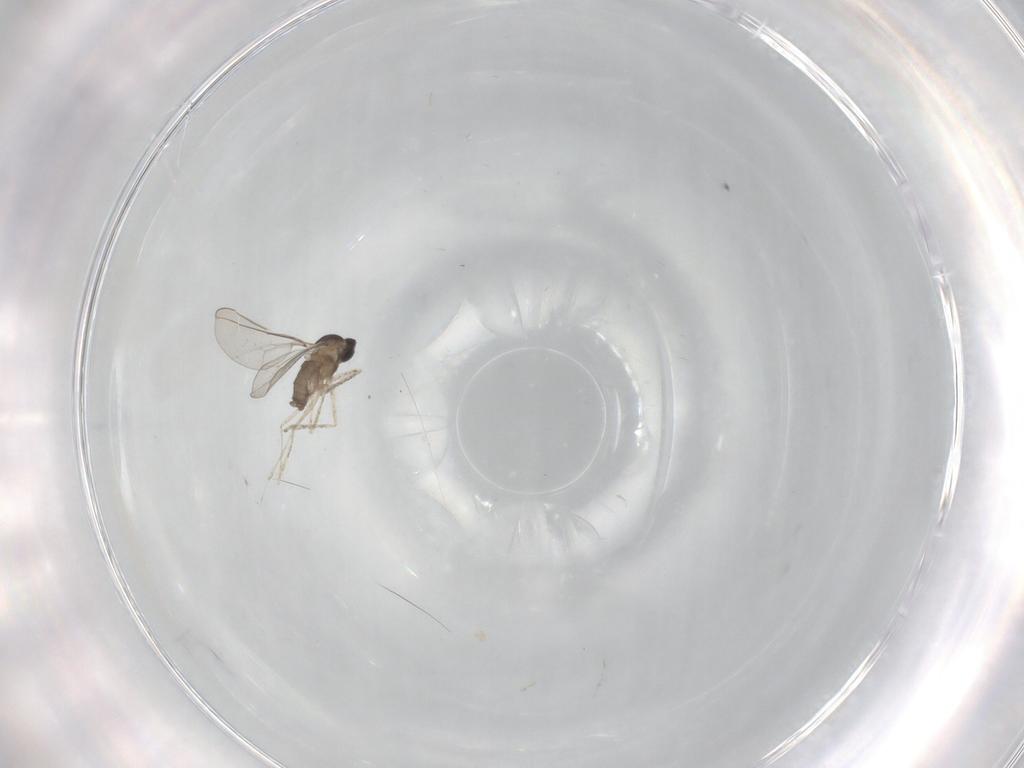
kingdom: Animalia
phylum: Arthropoda
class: Insecta
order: Diptera
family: Cecidomyiidae
